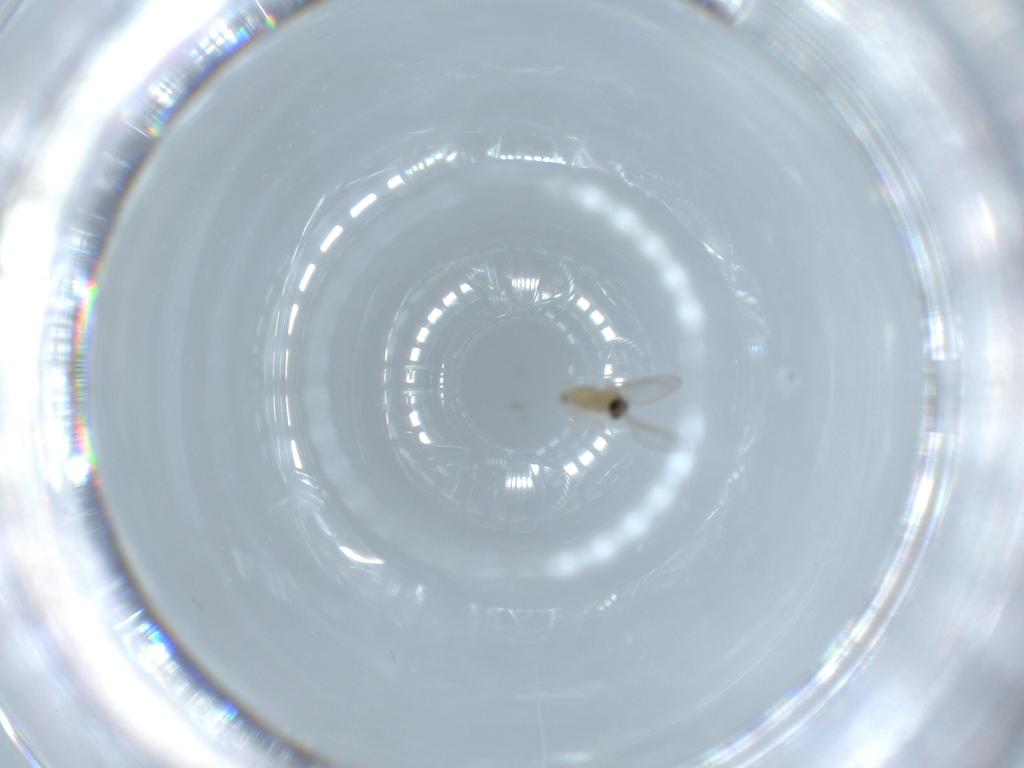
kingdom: Animalia
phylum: Arthropoda
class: Insecta
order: Diptera
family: Cecidomyiidae
